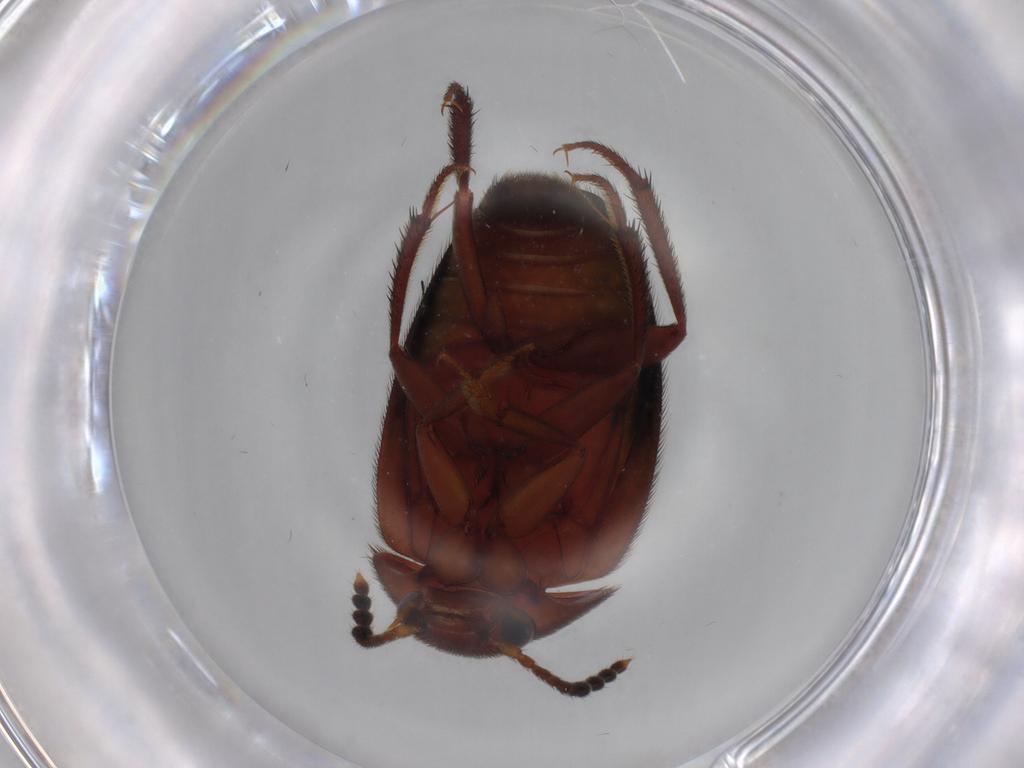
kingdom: Animalia
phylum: Arthropoda
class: Insecta
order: Coleoptera
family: Leiodidae
